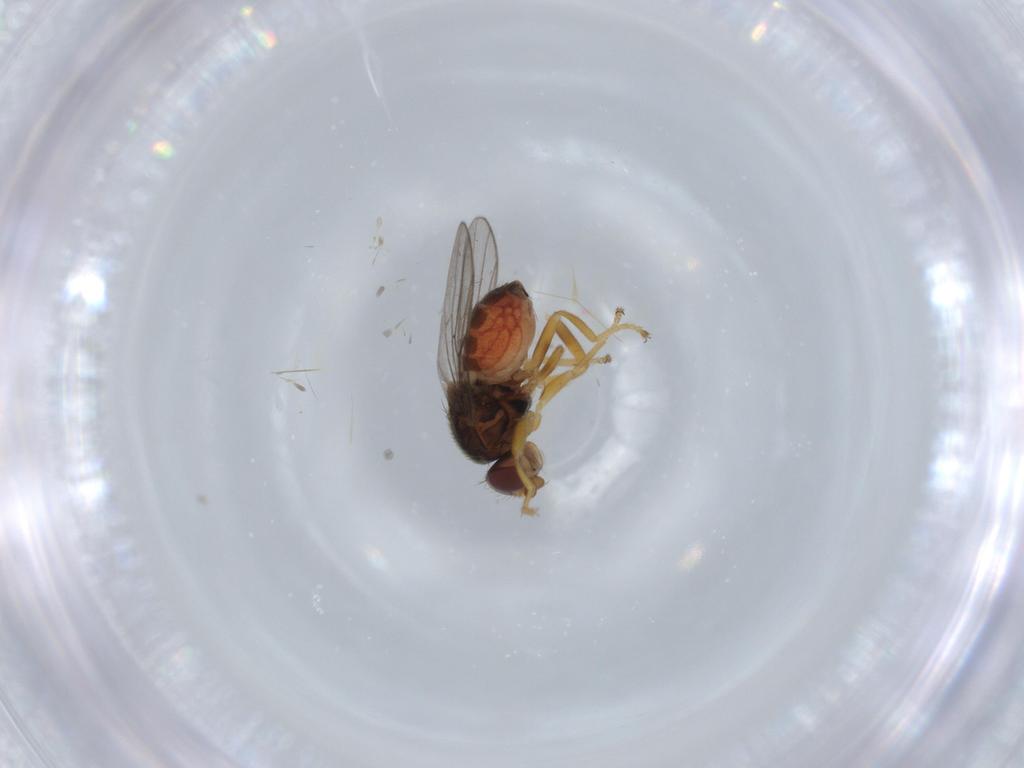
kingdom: Animalia
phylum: Arthropoda
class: Insecta
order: Diptera
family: Chloropidae
